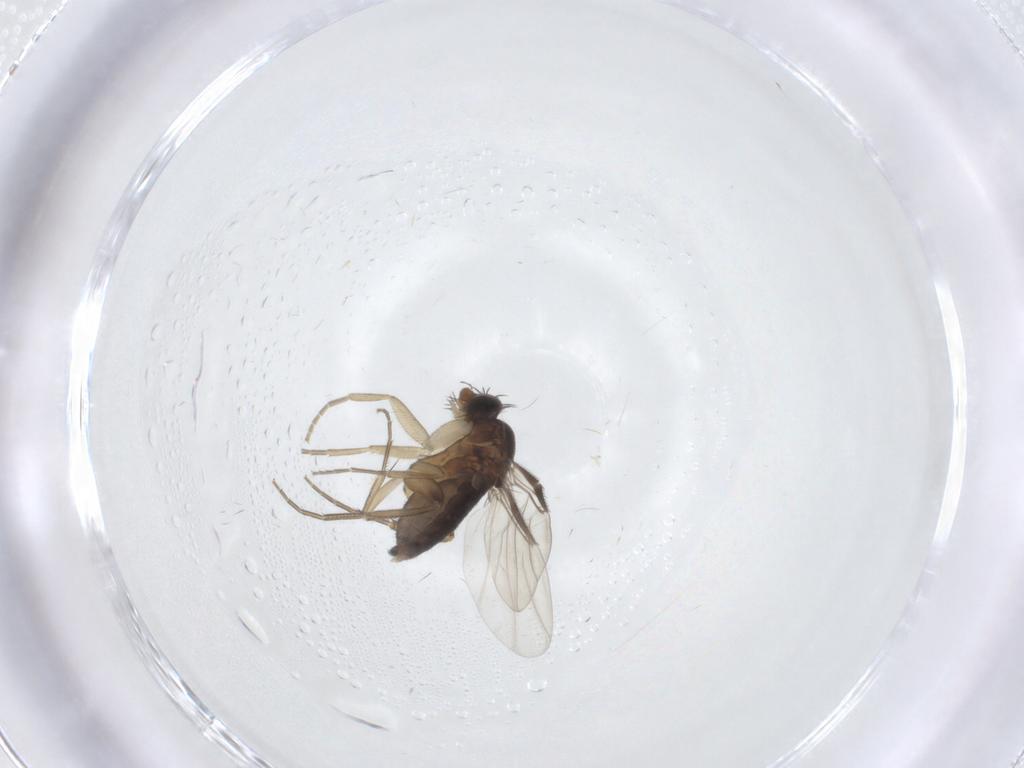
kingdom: Animalia
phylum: Arthropoda
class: Insecta
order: Diptera
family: Phoridae
